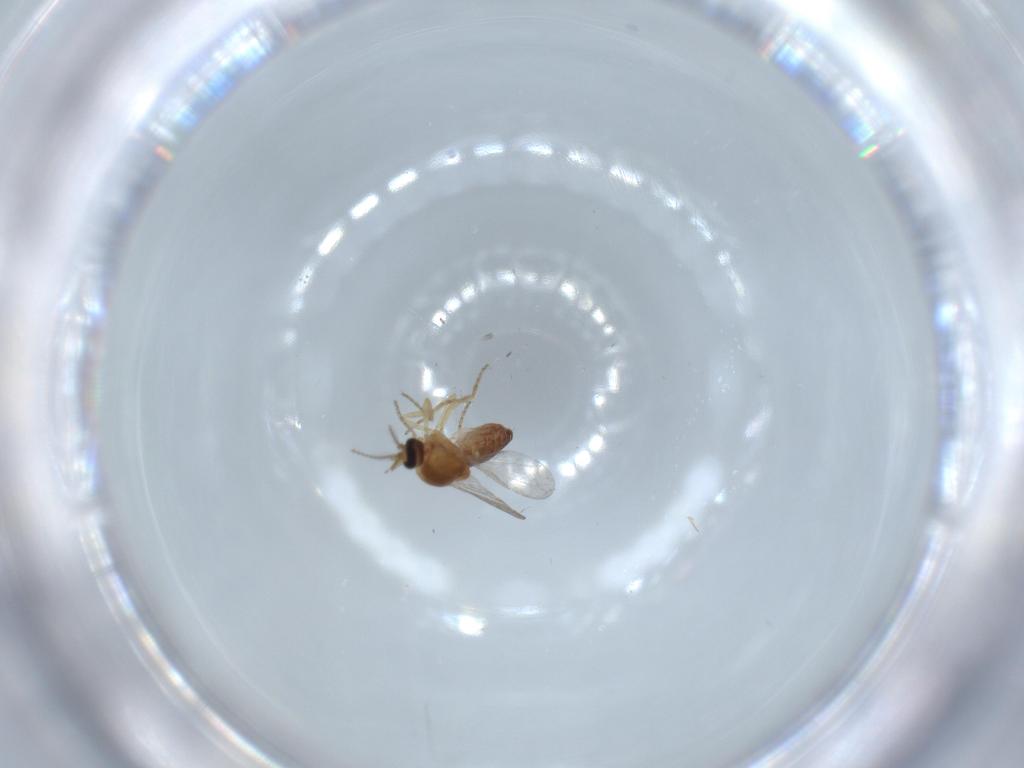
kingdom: Animalia
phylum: Arthropoda
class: Insecta
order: Diptera
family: Ceratopogonidae
